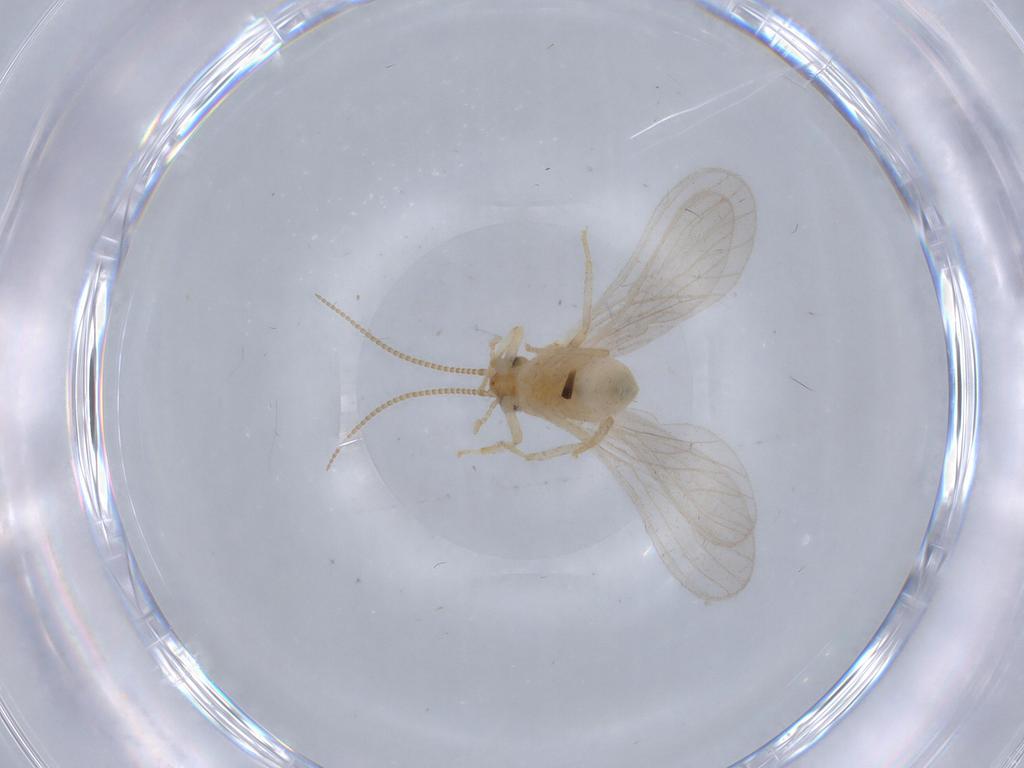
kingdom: Animalia
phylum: Arthropoda
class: Insecta
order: Neuroptera
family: Coniopterygidae
